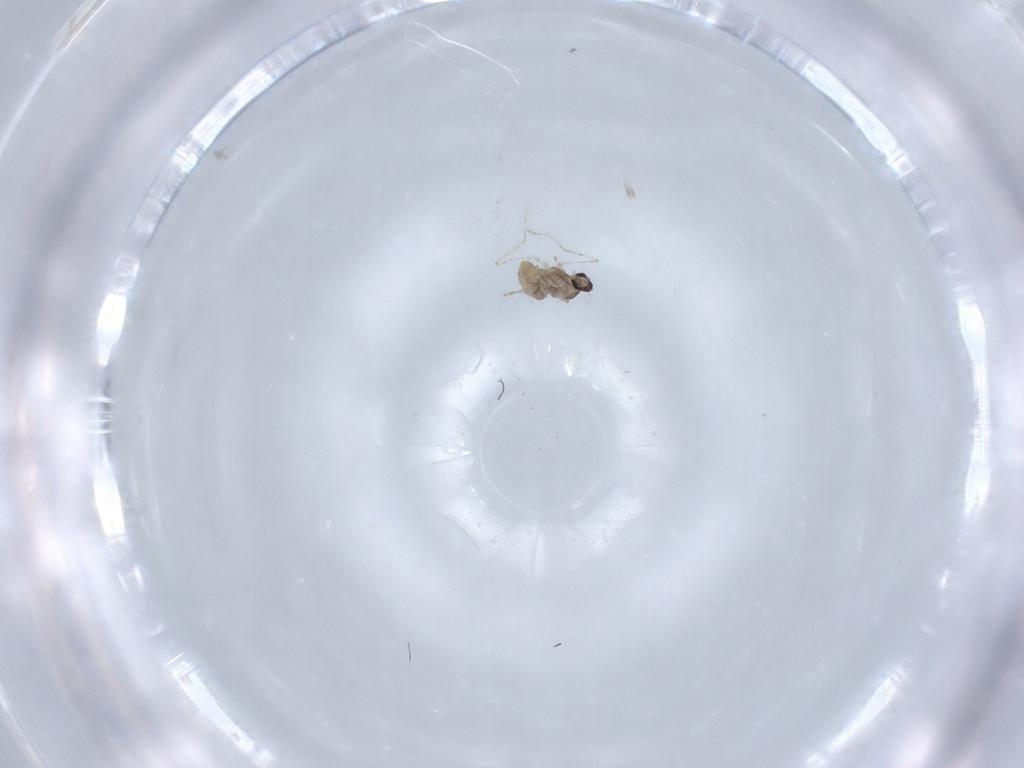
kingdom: Animalia
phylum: Arthropoda
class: Insecta
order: Diptera
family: Cecidomyiidae
